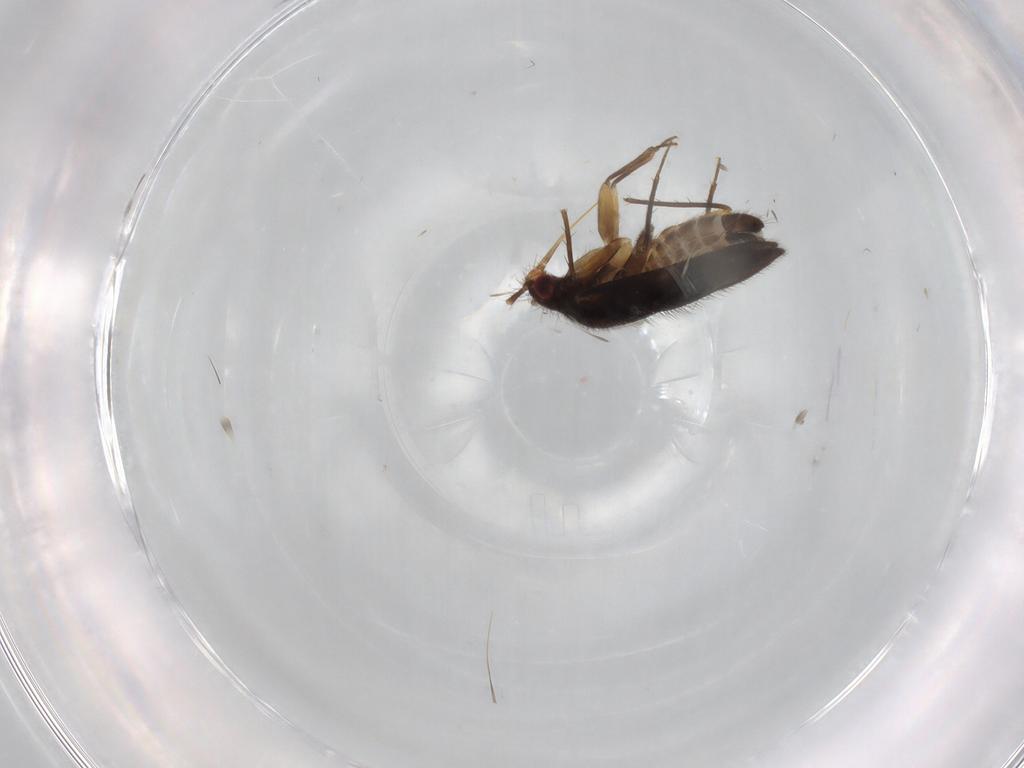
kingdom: Animalia
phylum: Arthropoda
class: Insecta
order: Hemiptera
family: Ceratocombidae
